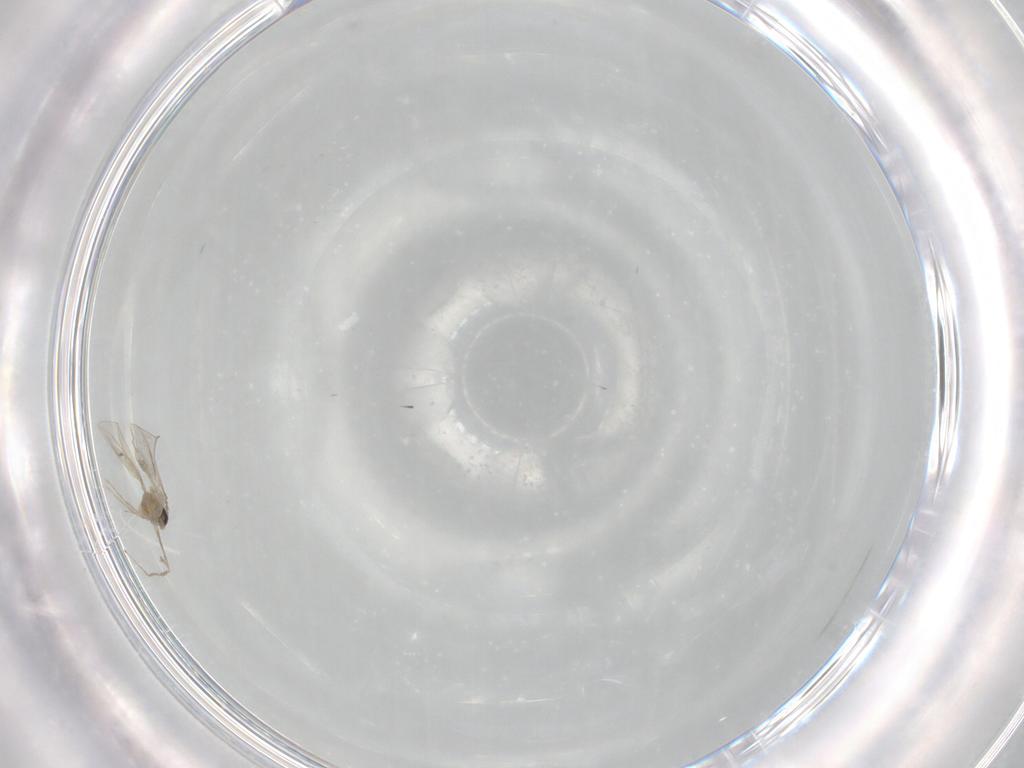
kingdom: Animalia
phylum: Arthropoda
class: Insecta
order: Diptera
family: Cecidomyiidae
